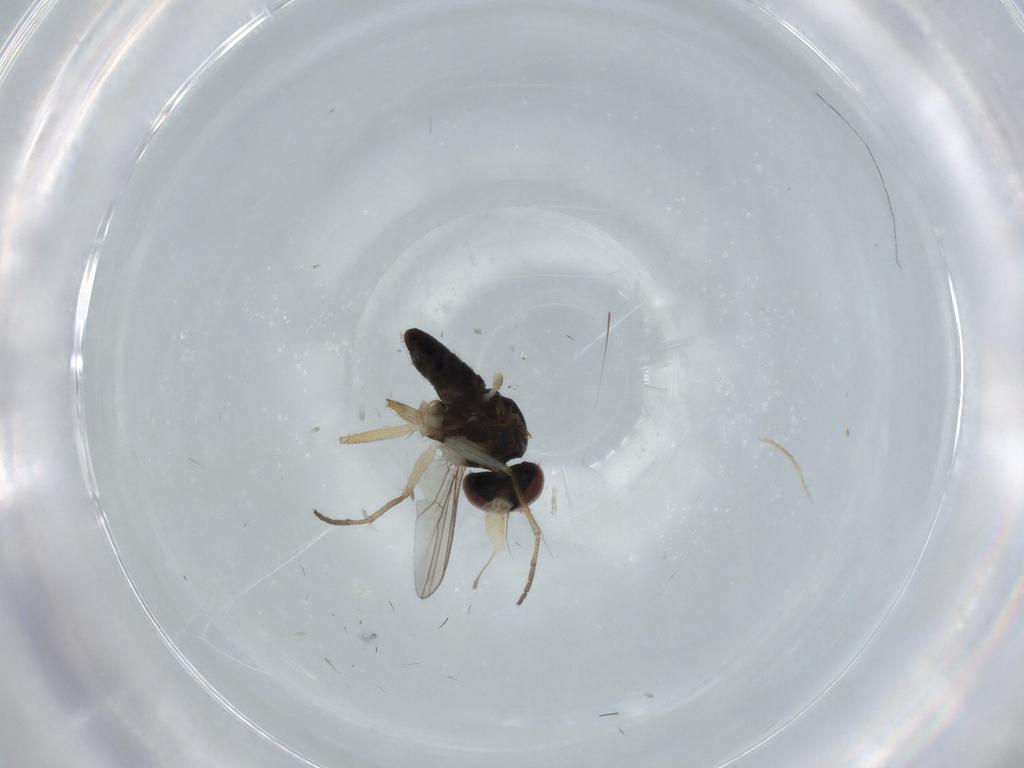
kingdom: Animalia
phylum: Arthropoda
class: Insecta
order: Diptera
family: Dolichopodidae
